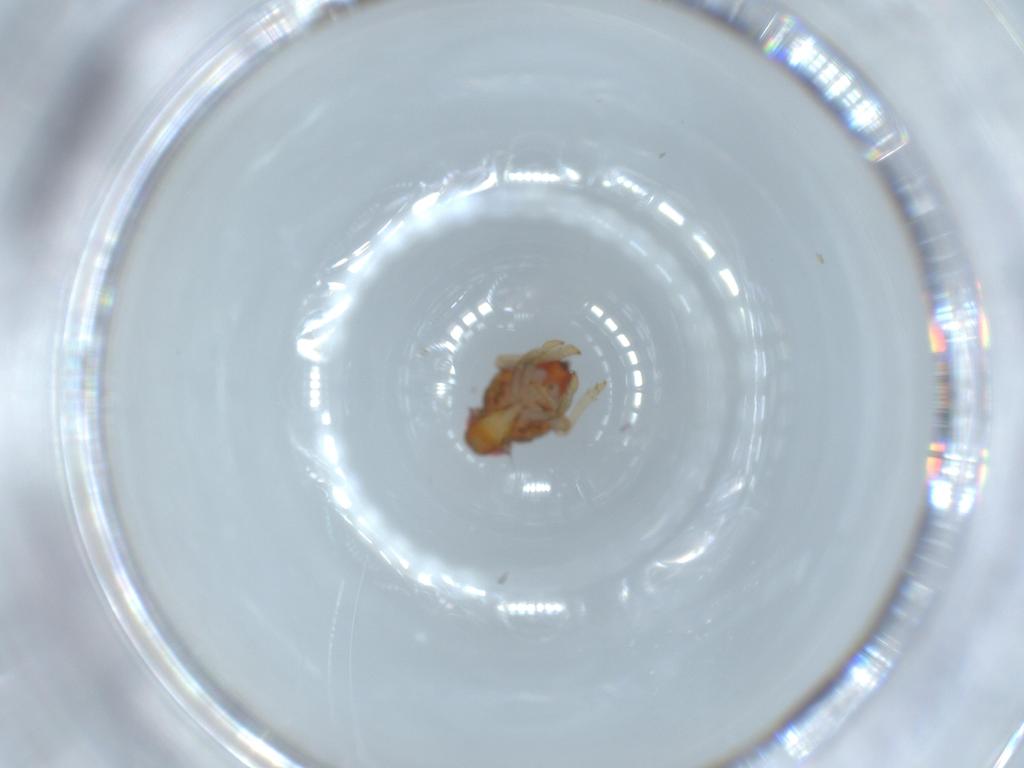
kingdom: Animalia
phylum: Arthropoda
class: Insecta
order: Hemiptera
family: Issidae
